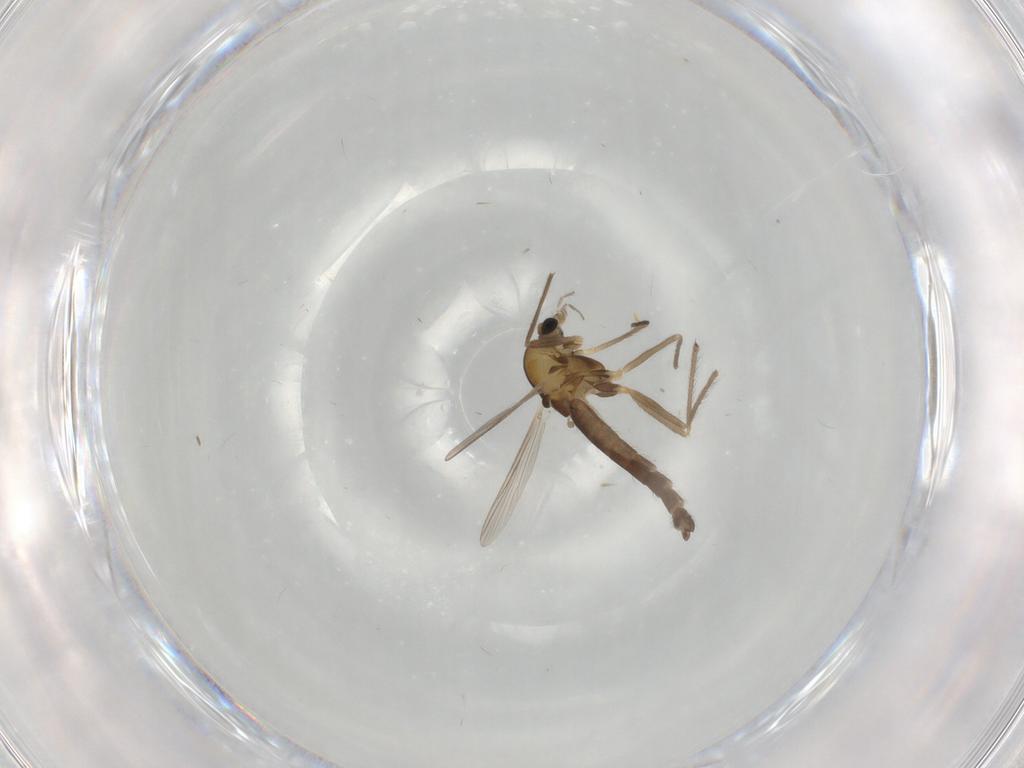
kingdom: Animalia
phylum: Arthropoda
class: Insecta
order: Diptera
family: Chironomidae
